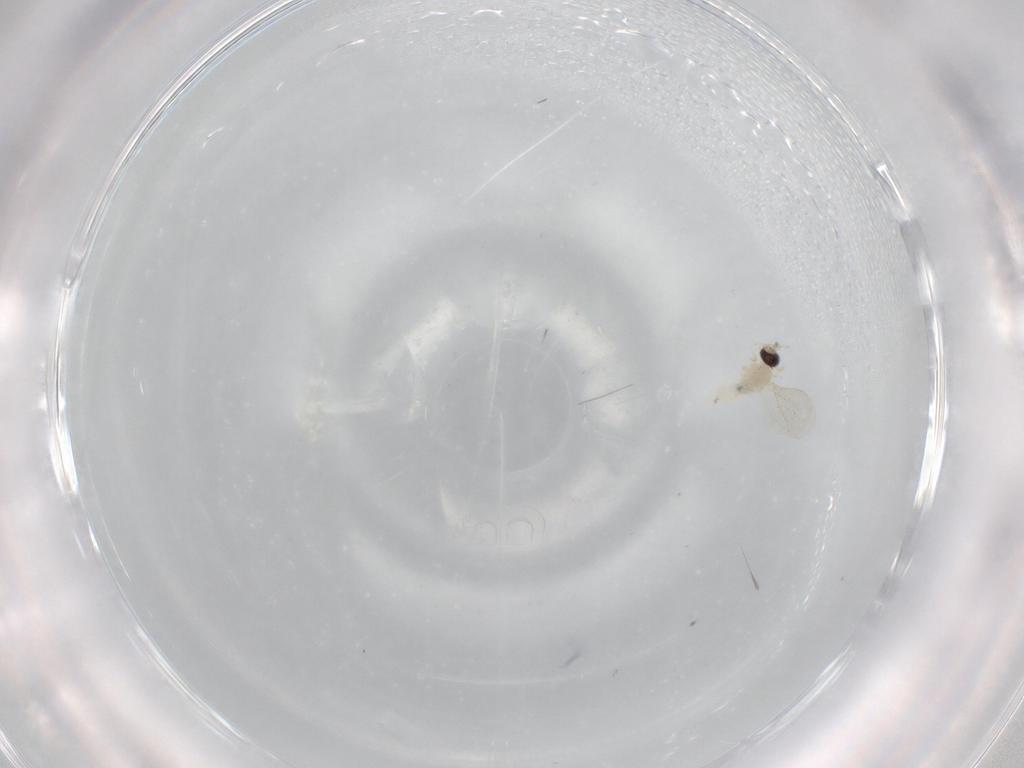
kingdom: Animalia
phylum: Arthropoda
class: Insecta
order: Diptera
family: Cecidomyiidae
